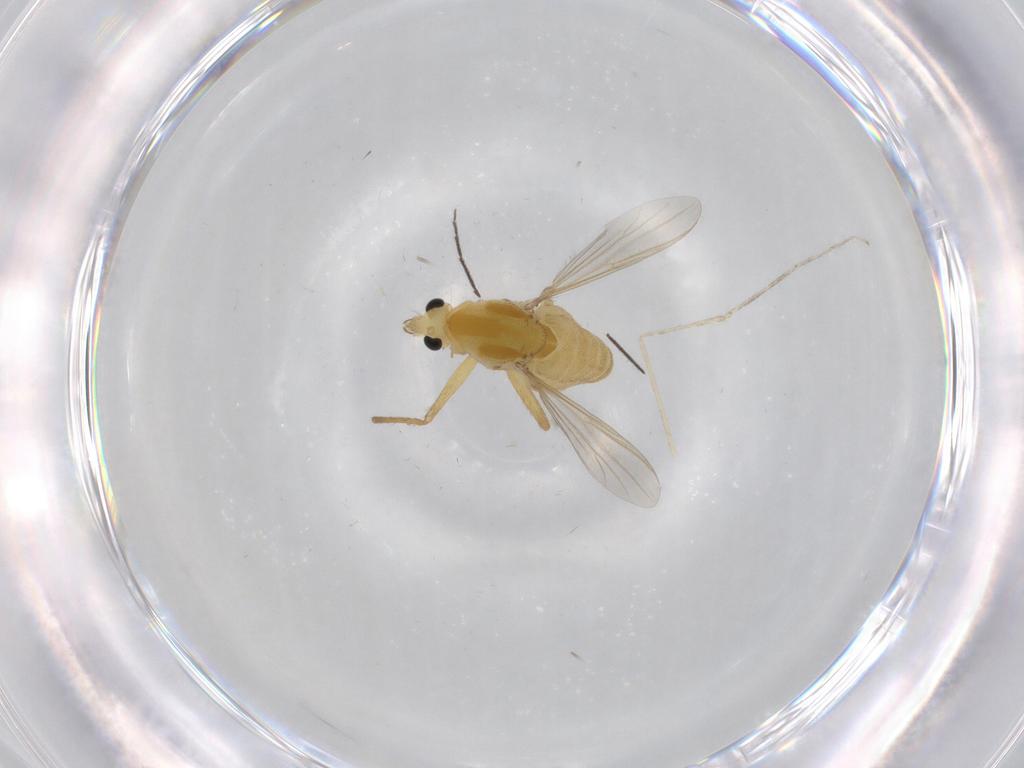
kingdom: Animalia
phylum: Arthropoda
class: Insecta
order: Diptera
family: Chironomidae
